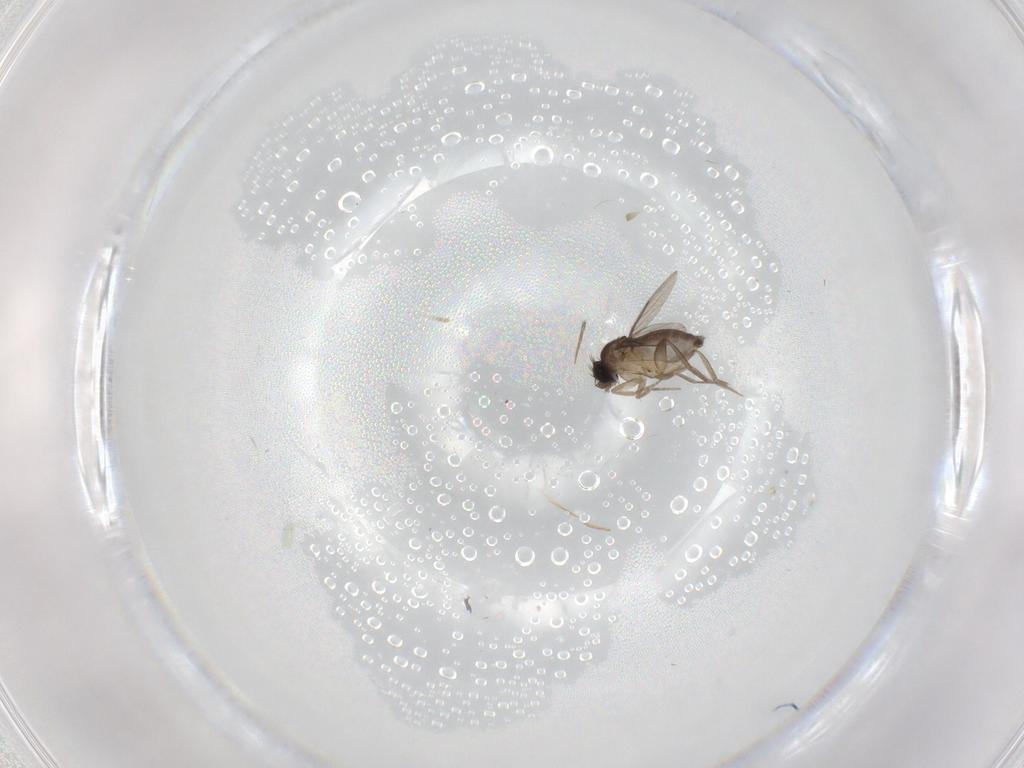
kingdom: Animalia
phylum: Arthropoda
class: Insecta
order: Diptera
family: Phoridae
